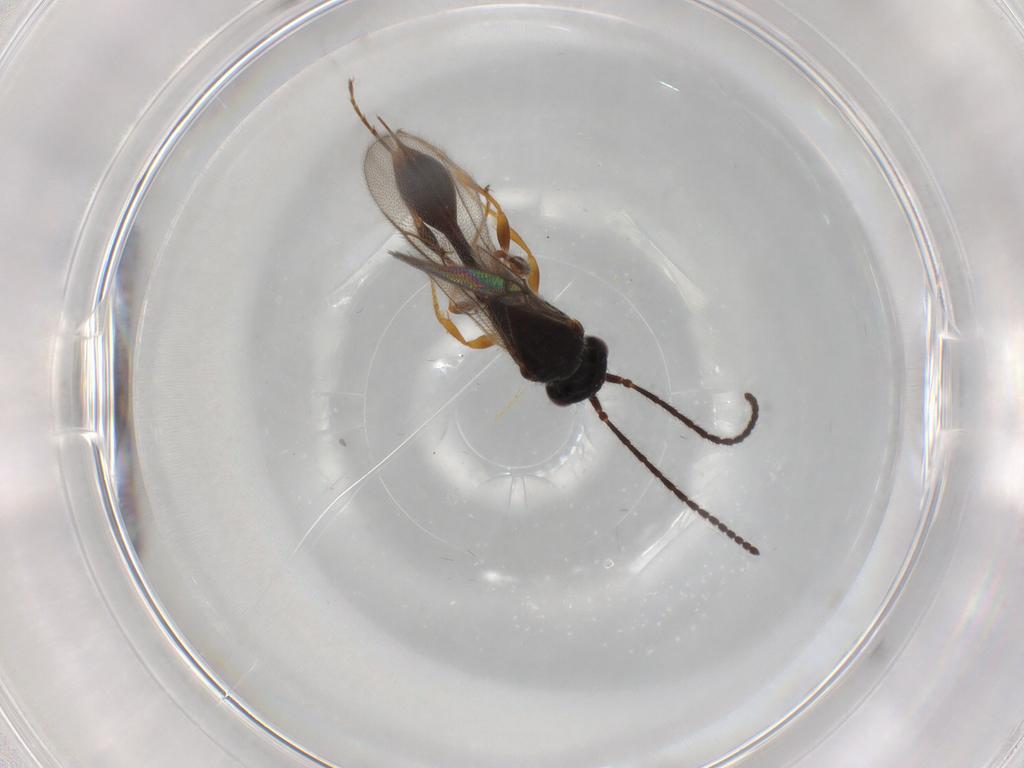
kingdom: Animalia
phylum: Arthropoda
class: Insecta
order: Hymenoptera
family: Diapriidae
